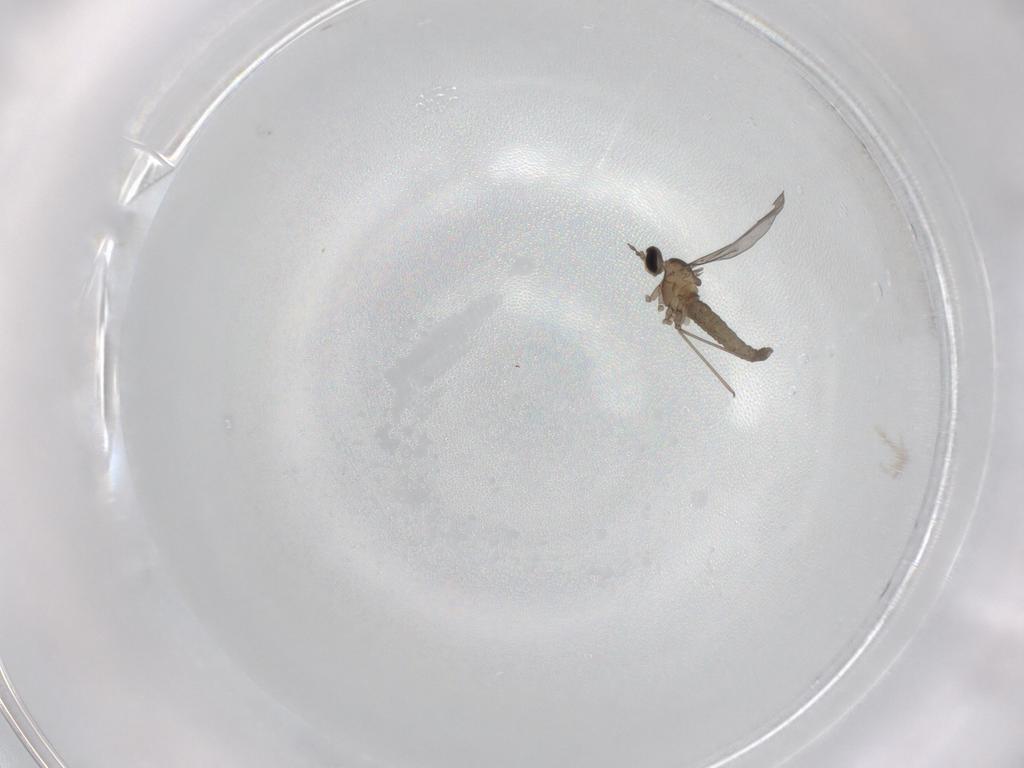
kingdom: Animalia
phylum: Arthropoda
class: Insecta
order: Diptera
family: Cecidomyiidae
